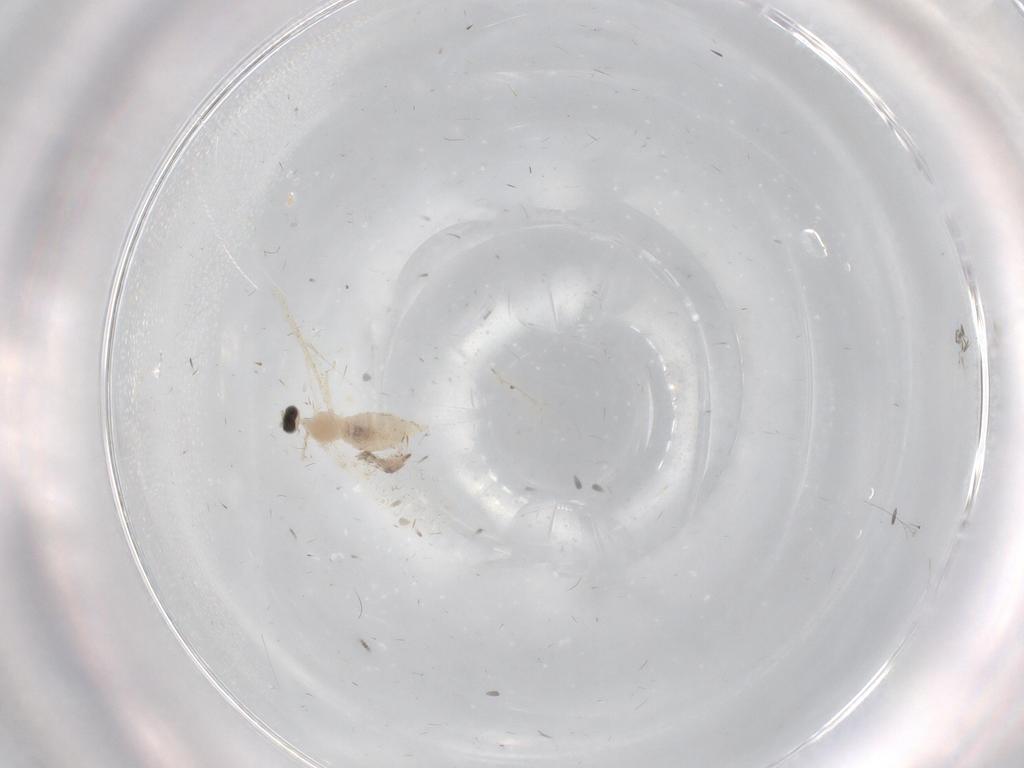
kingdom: Animalia
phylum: Arthropoda
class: Insecta
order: Diptera
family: Cecidomyiidae
